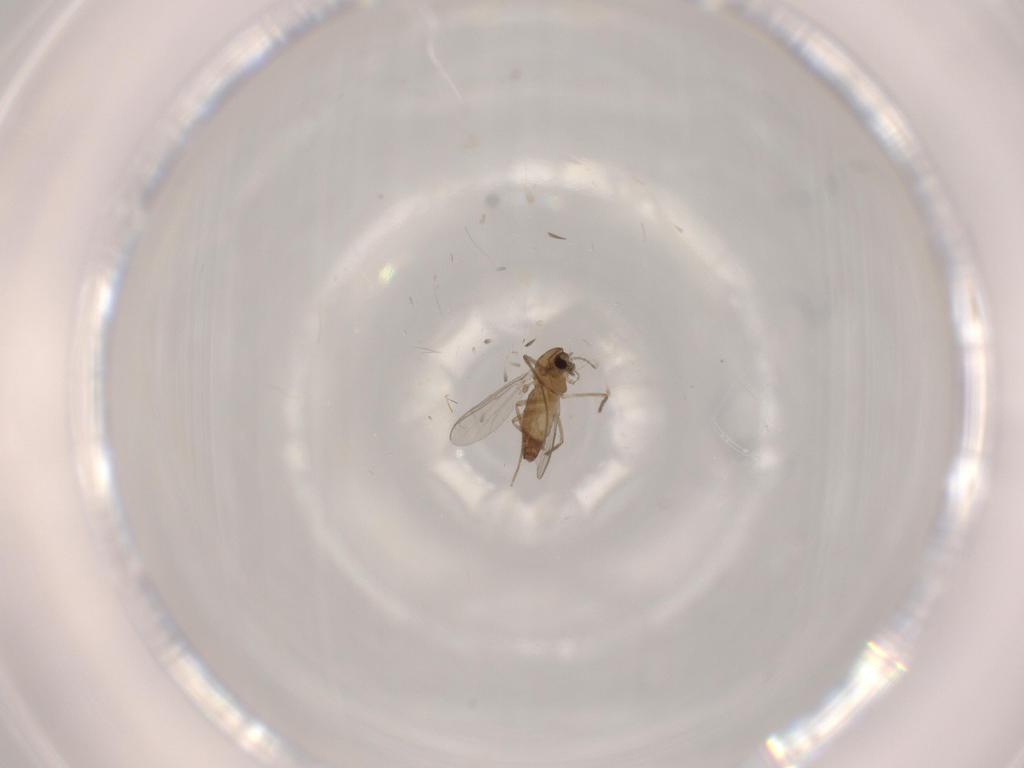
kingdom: Animalia
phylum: Arthropoda
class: Insecta
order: Diptera
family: Chironomidae
